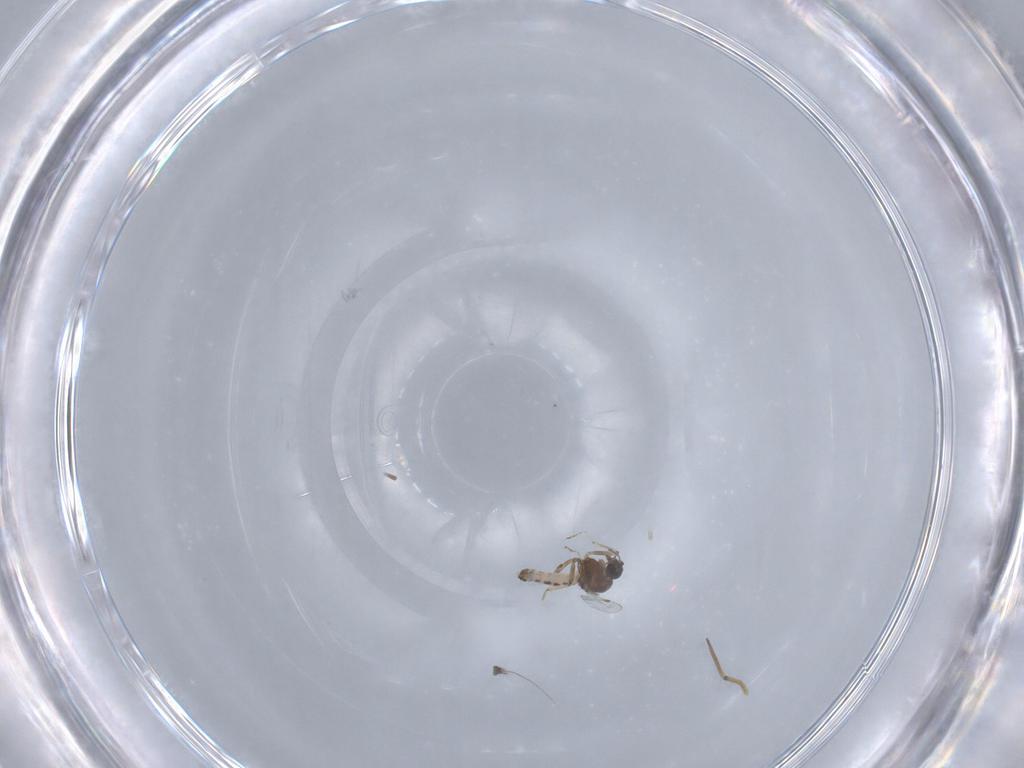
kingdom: Animalia
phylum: Arthropoda
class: Insecta
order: Diptera
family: Ceratopogonidae
